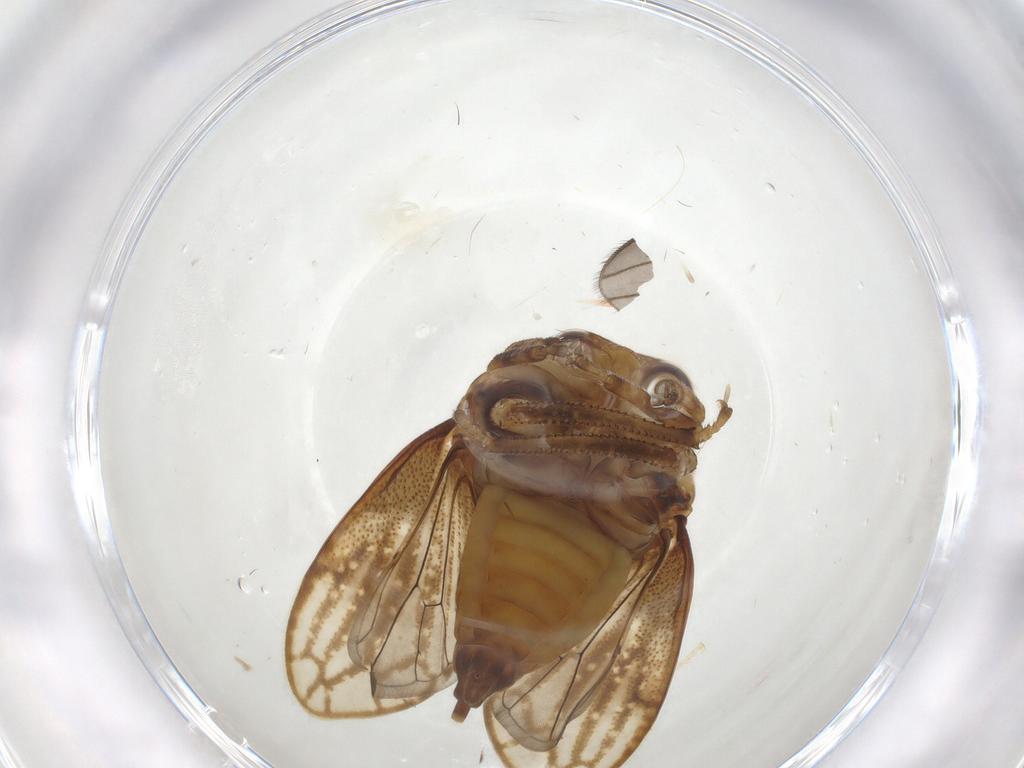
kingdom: Animalia
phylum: Arthropoda
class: Insecta
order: Hemiptera
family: Aetalionidae
